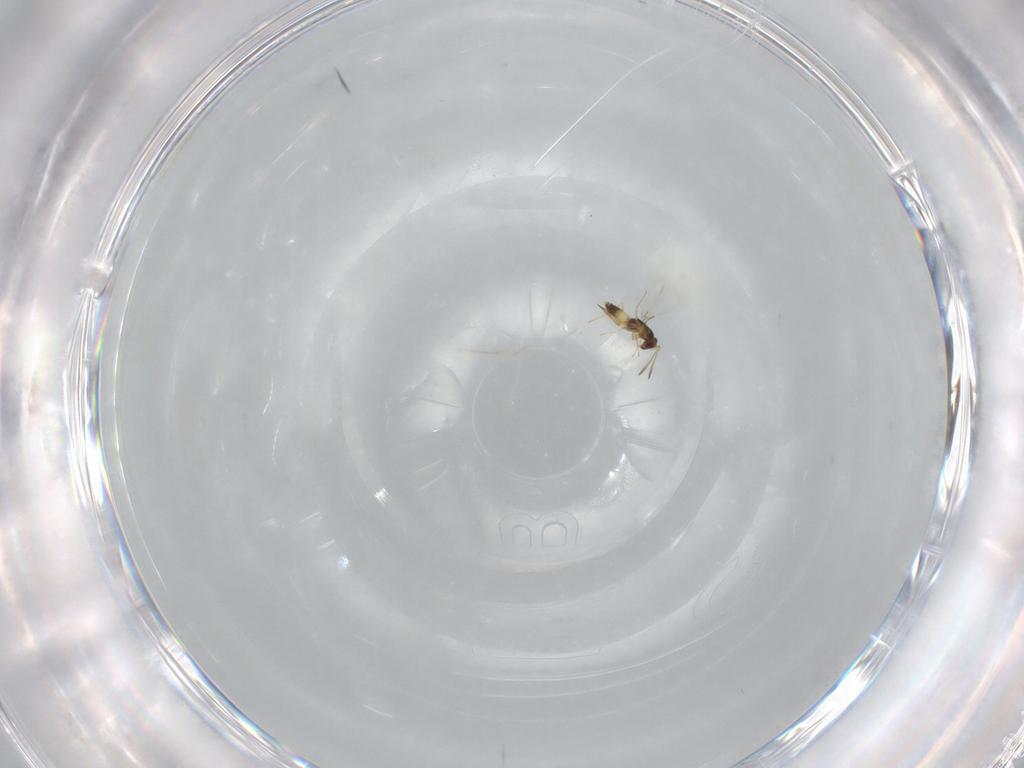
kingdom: Animalia
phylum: Arthropoda
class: Insecta
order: Hymenoptera
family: Mymaridae
